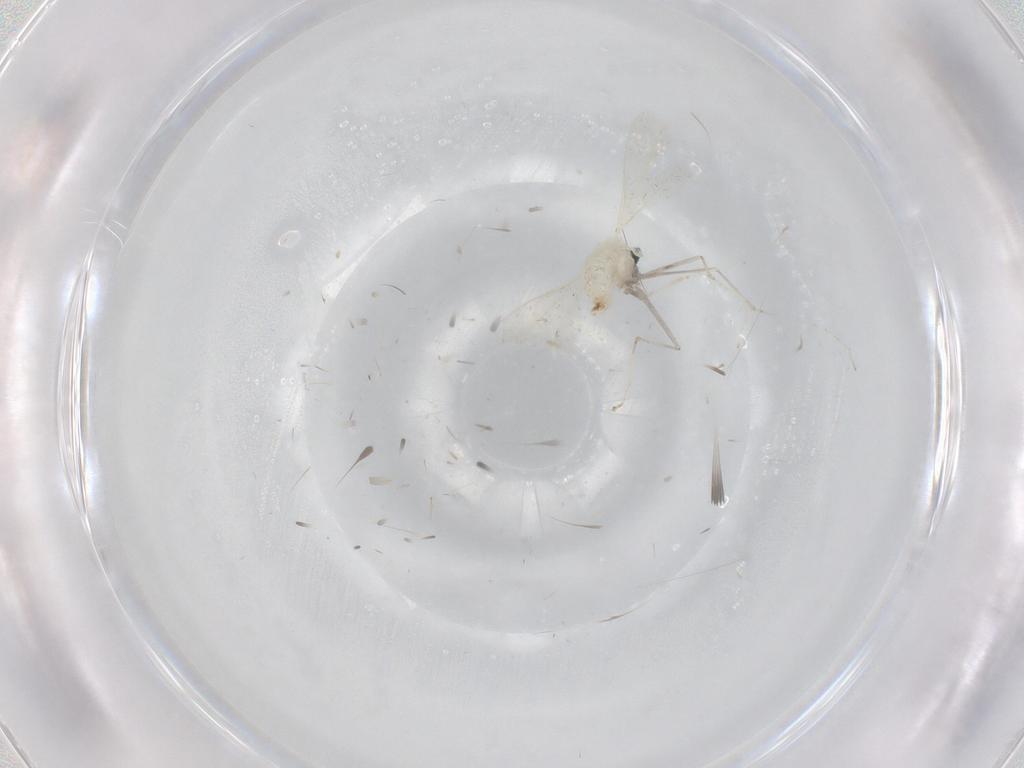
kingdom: Animalia
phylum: Arthropoda
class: Insecta
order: Diptera
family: Cecidomyiidae
